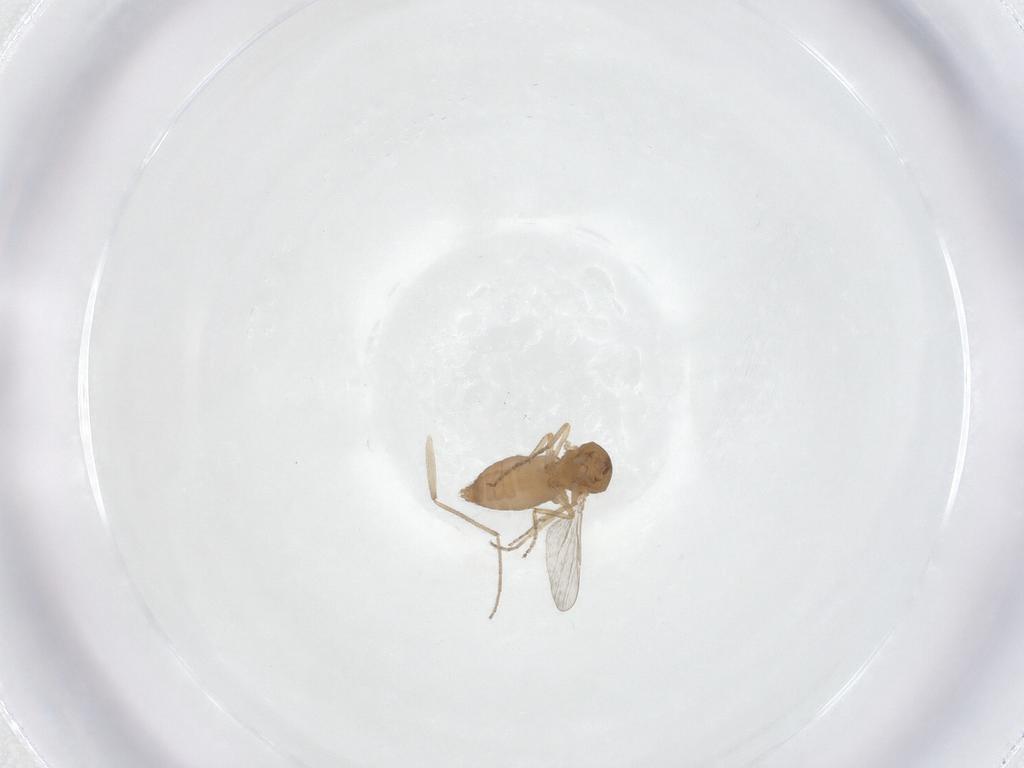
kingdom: Animalia
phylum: Arthropoda
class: Insecta
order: Diptera
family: Chironomidae
